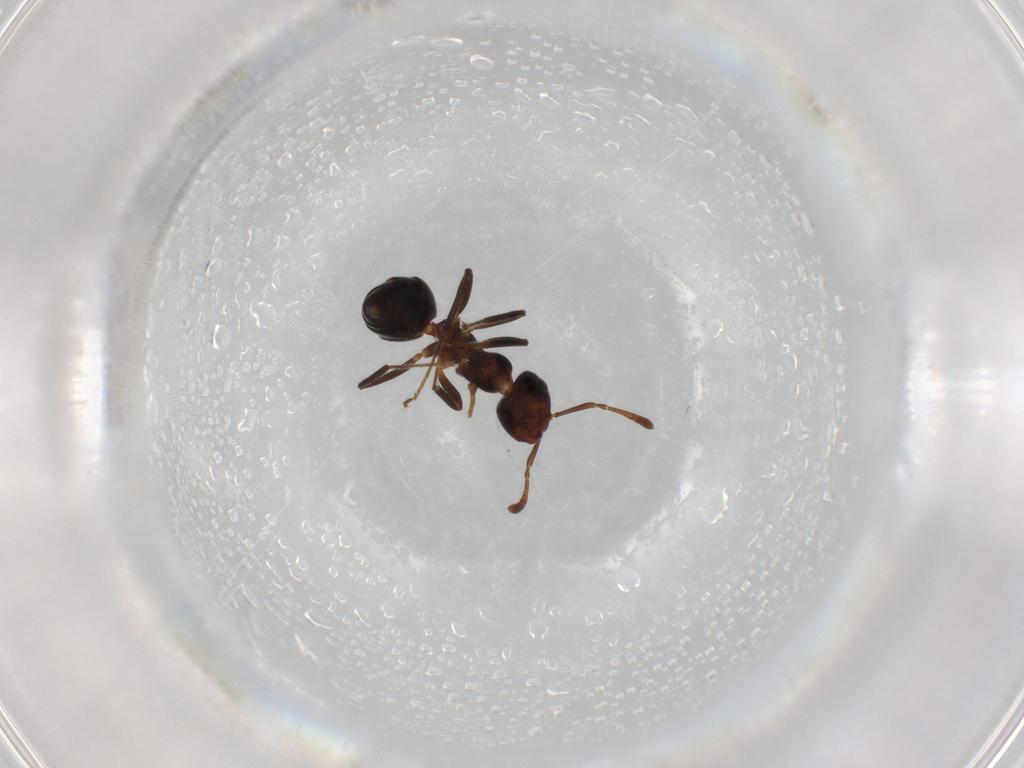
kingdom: Animalia
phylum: Arthropoda
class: Insecta
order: Hymenoptera
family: Formicidae
